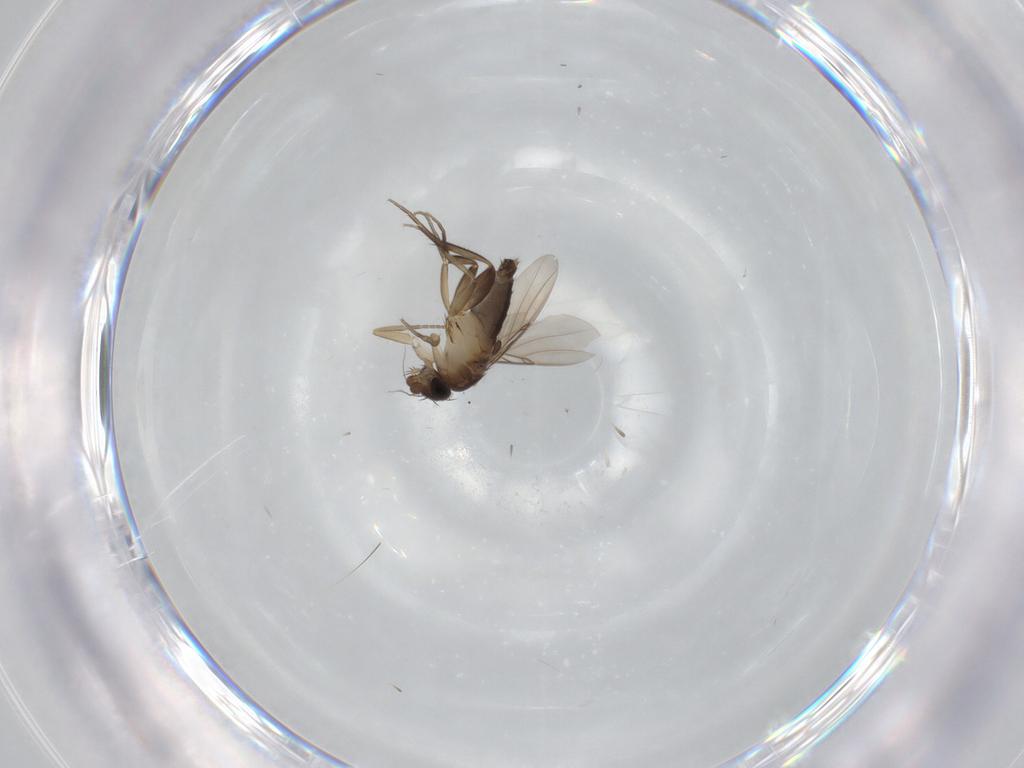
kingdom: Animalia
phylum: Arthropoda
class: Insecta
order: Diptera
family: Phoridae
